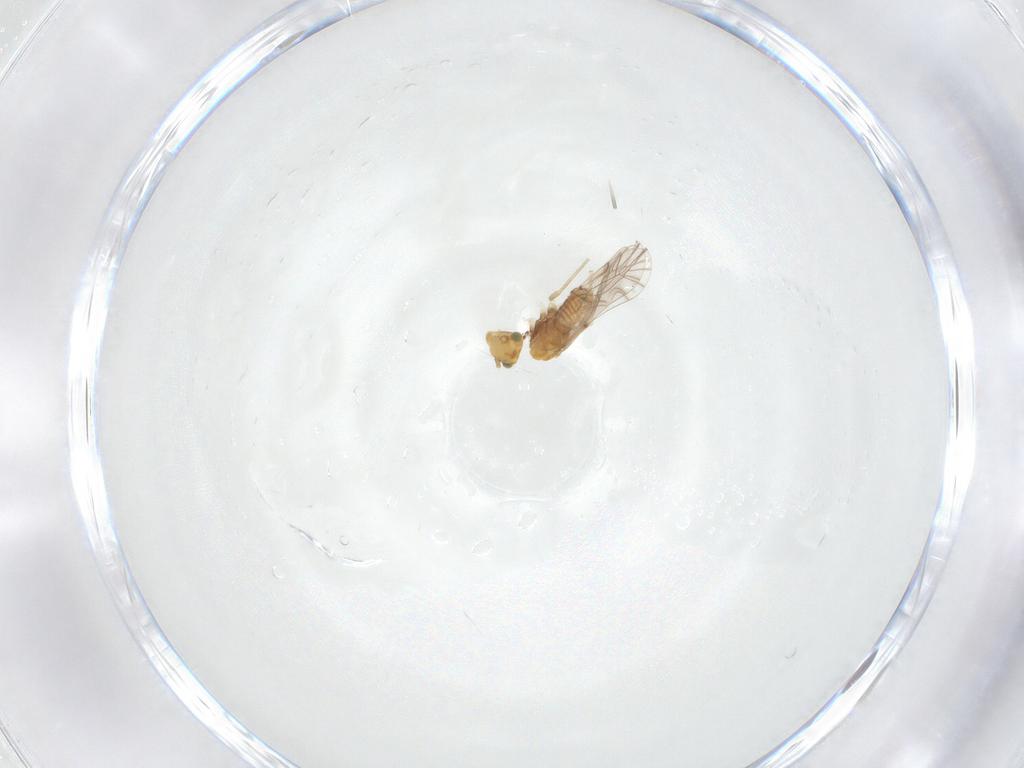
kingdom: Animalia
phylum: Arthropoda
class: Insecta
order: Psocodea
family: Lachesillidae
